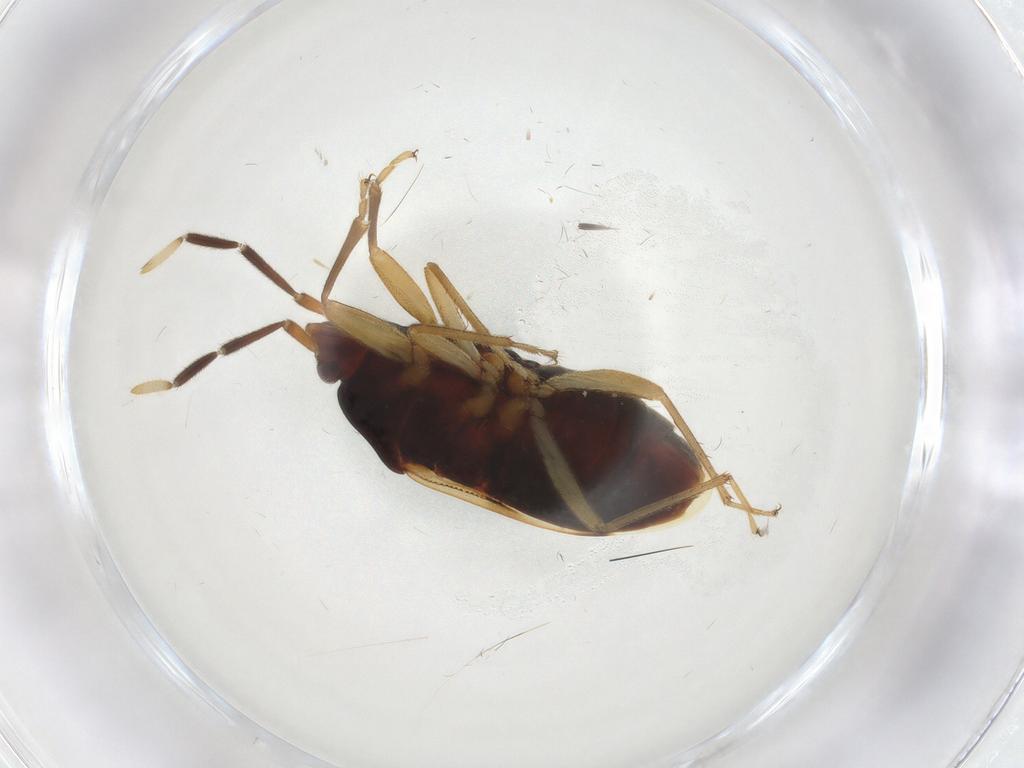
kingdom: Animalia
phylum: Arthropoda
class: Insecta
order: Hemiptera
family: Rhyparochromidae
